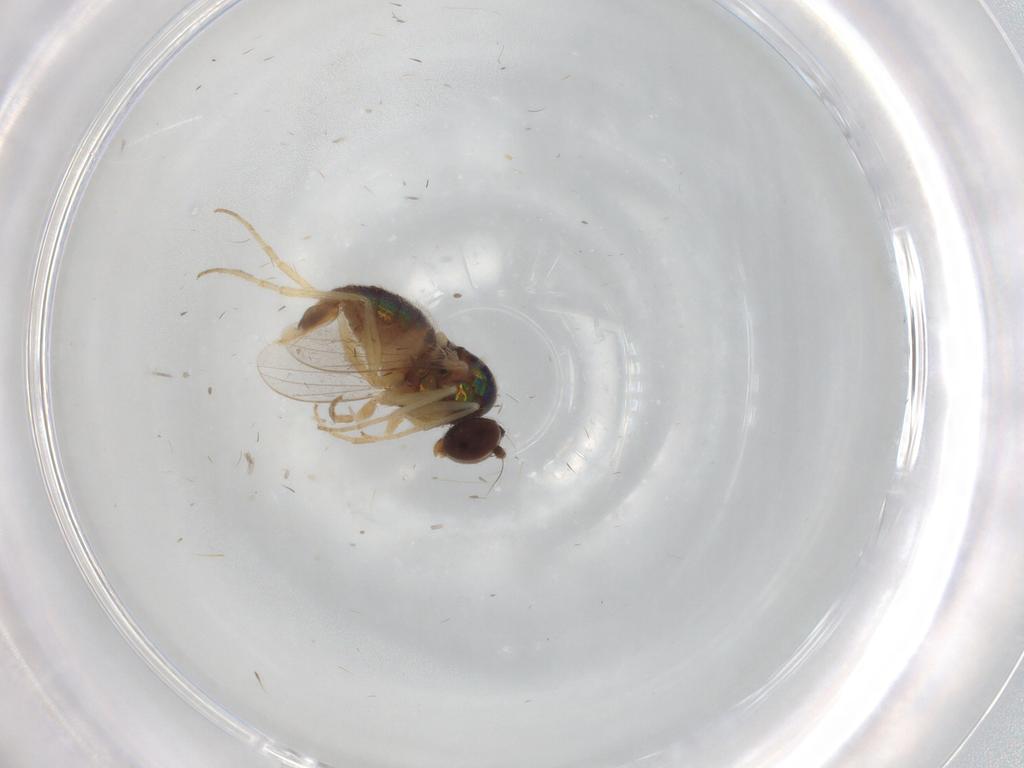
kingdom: Animalia
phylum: Arthropoda
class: Insecta
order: Diptera
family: Dolichopodidae
